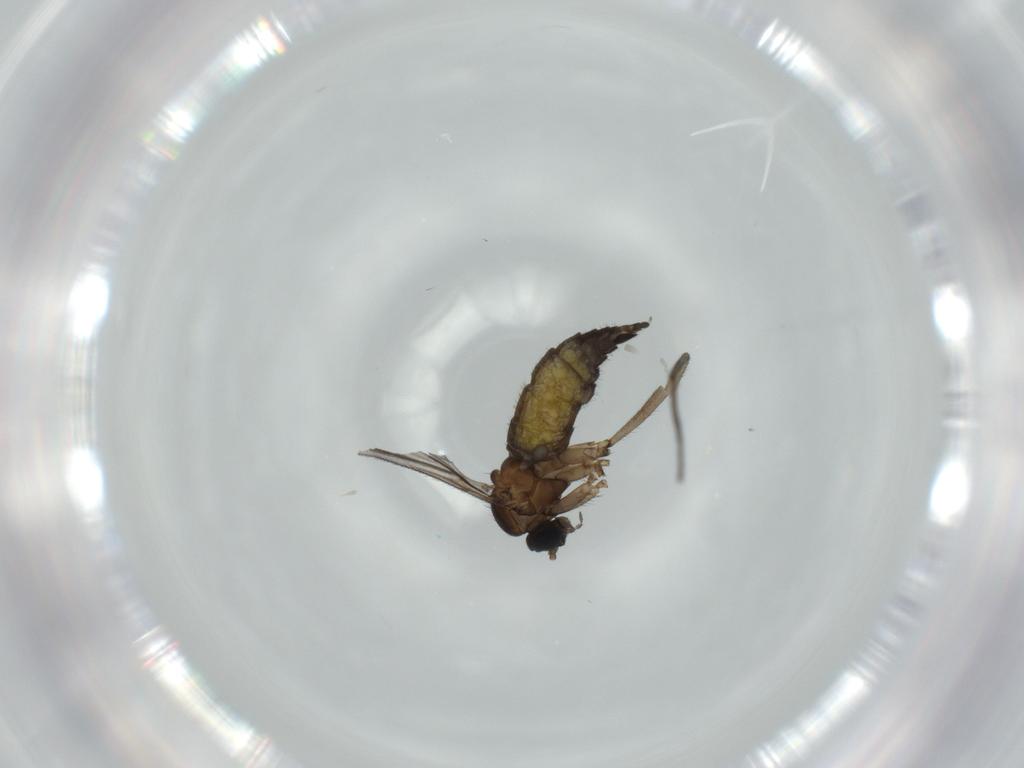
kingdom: Animalia
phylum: Arthropoda
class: Insecta
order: Diptera
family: Sciaridae
